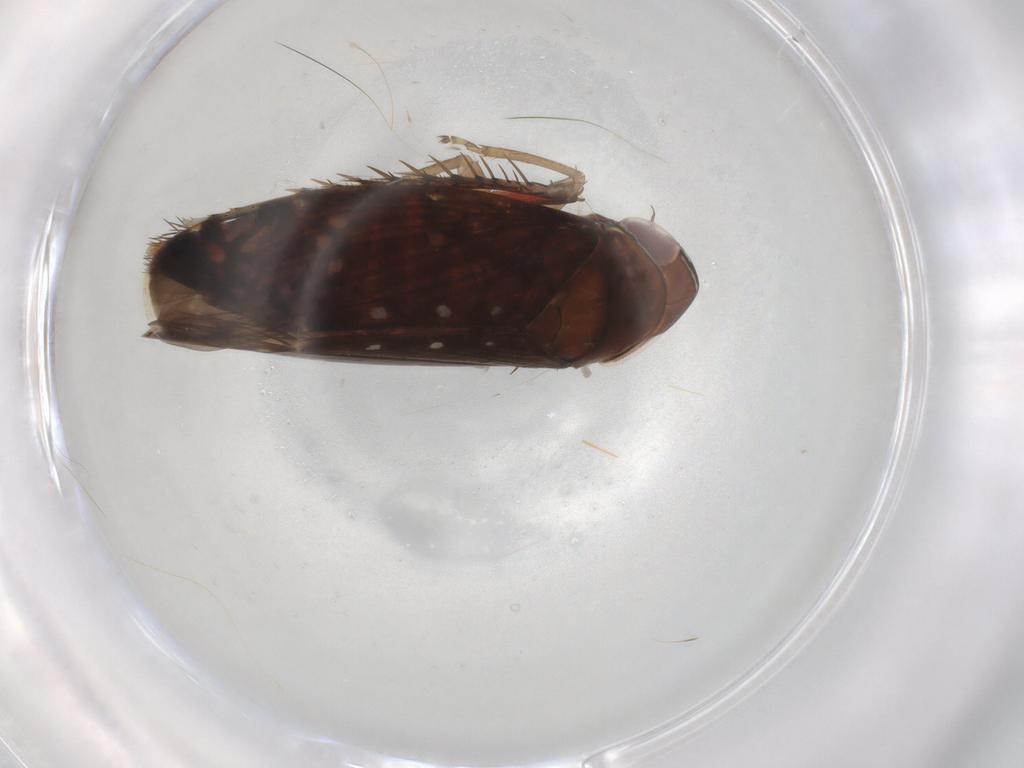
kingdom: Animalia
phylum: Arthropoda
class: Insecta
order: Hemiptera
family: Cicadellidae
